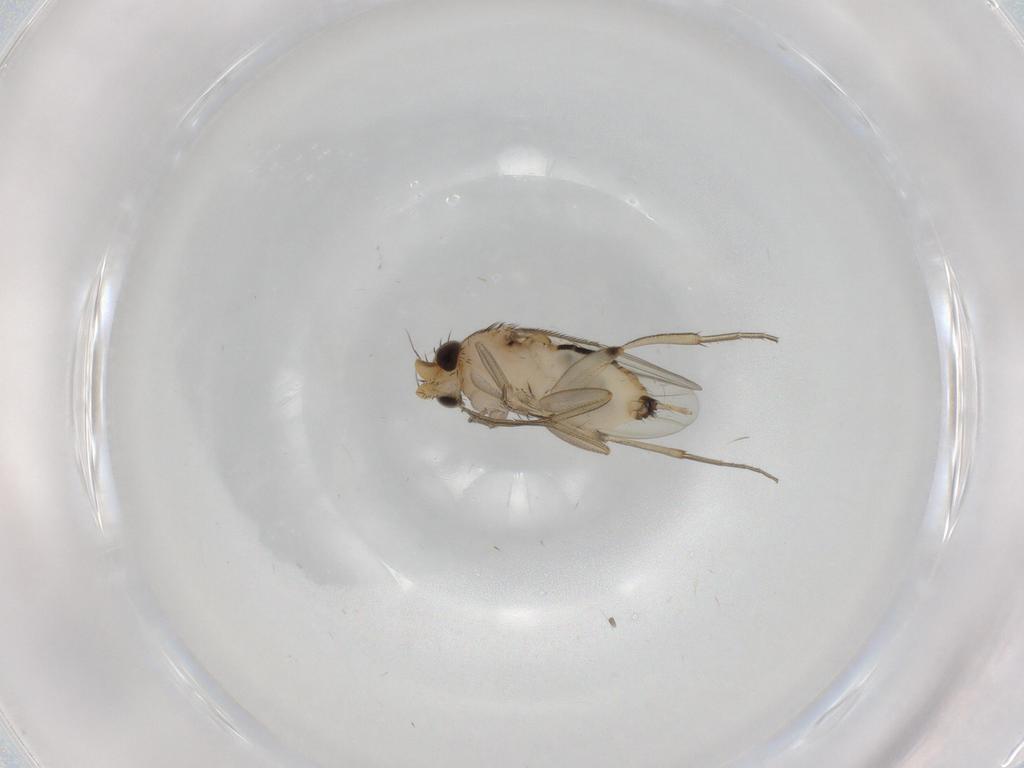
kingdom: Animalia
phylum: Arthropoda
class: Insecta
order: Diptera
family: Phoridae
